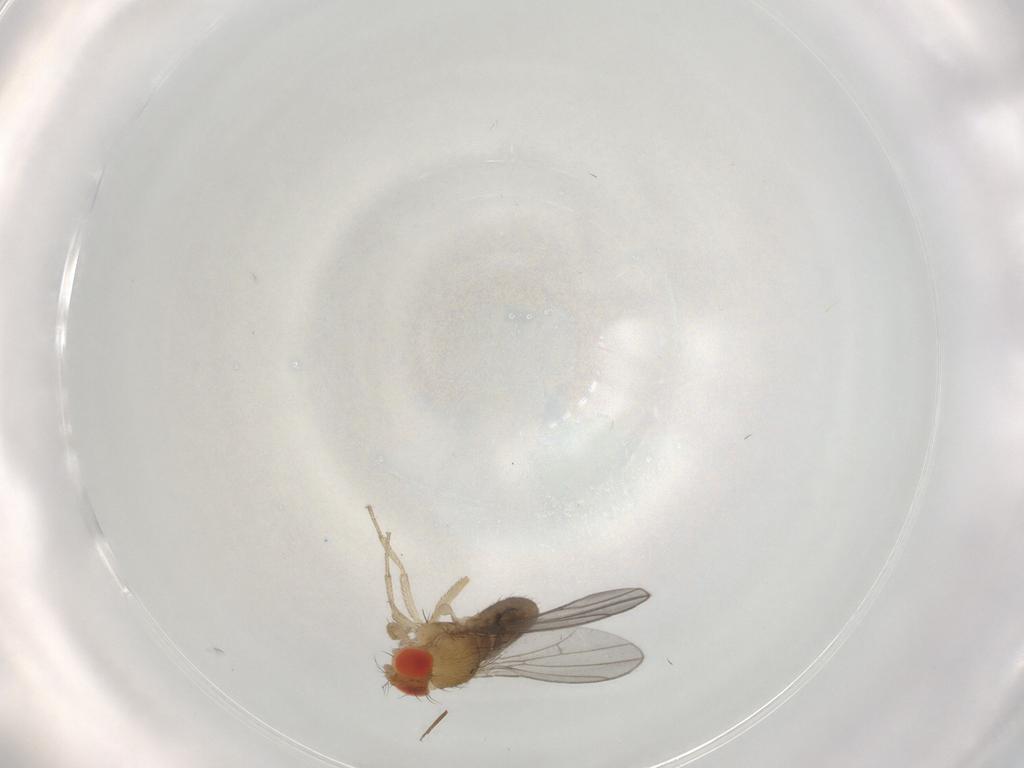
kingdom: Animalia
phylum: Arthropoda
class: Insecta
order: Diptera
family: Drosophilidae
